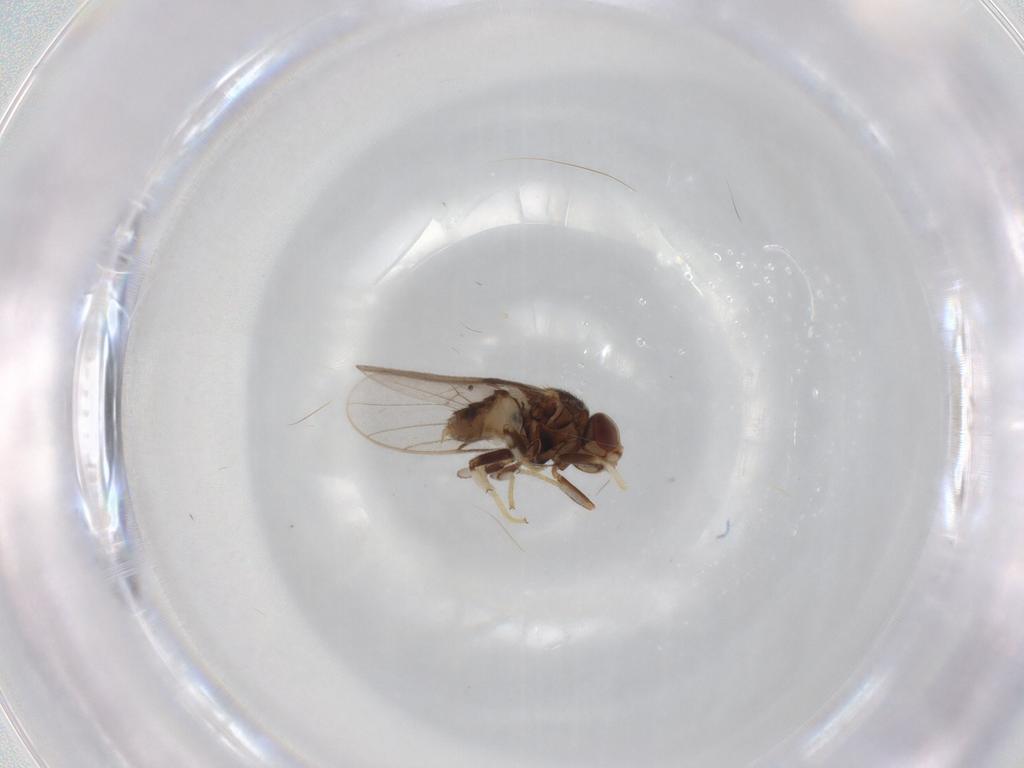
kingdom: Animalia
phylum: Arthropoda
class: Insecta
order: Diptera
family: Chloropidae
